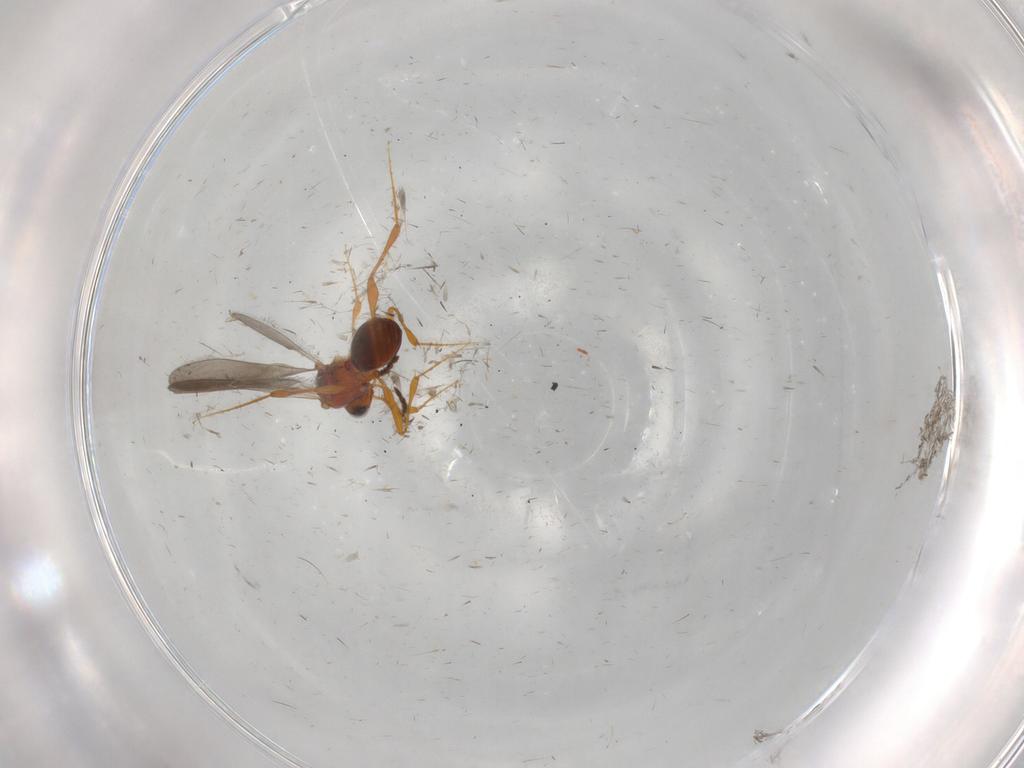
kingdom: Animalia
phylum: Arthropoda
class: Insecta
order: Hymenoptera
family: Platygastridae
